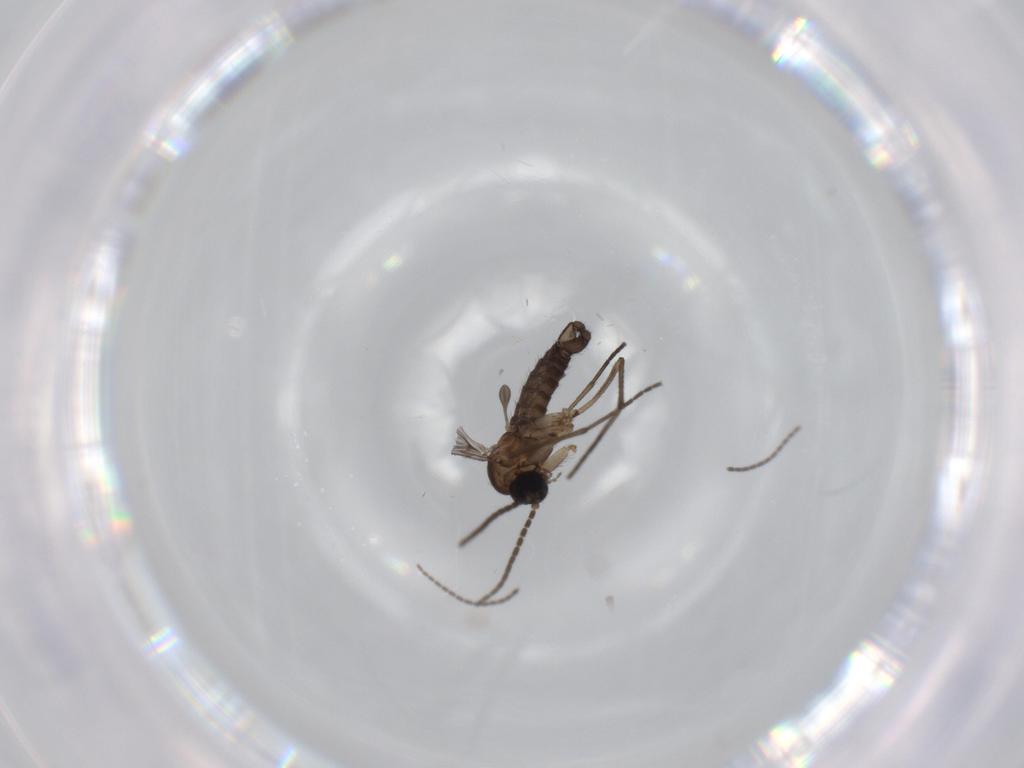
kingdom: Animalia
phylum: Arthropoda
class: Insecta
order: Diptera
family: Sciaridae
